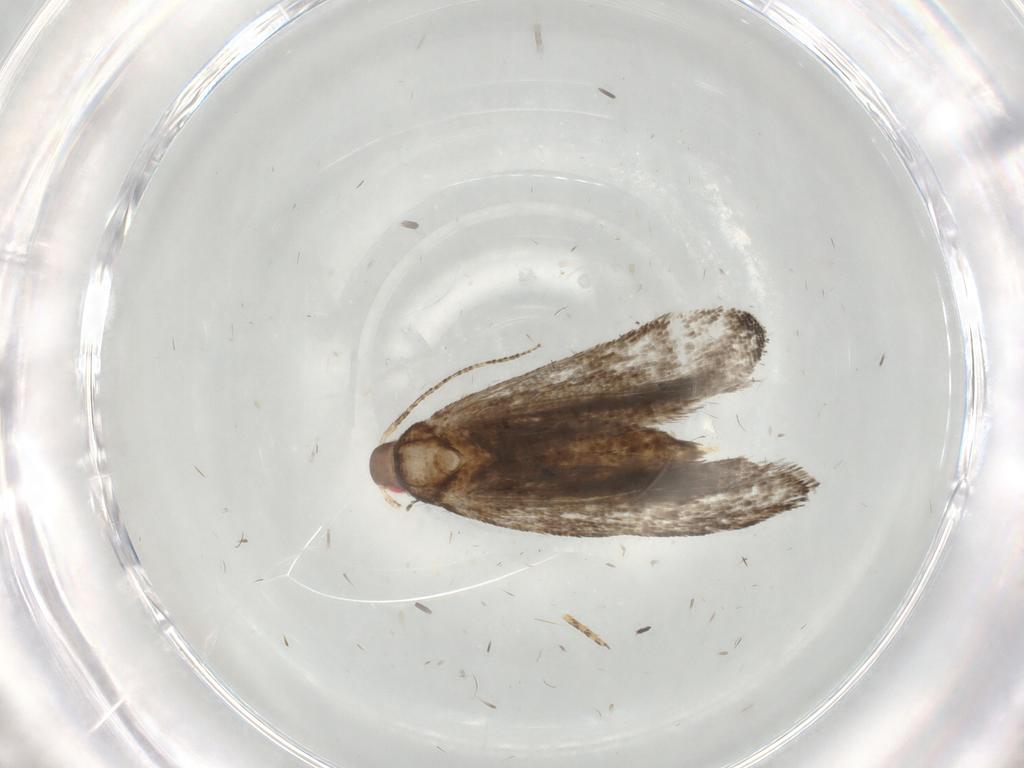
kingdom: Animalia
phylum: Arthropoda
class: Insecta
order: Lepidoptera
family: Gelechiidae
